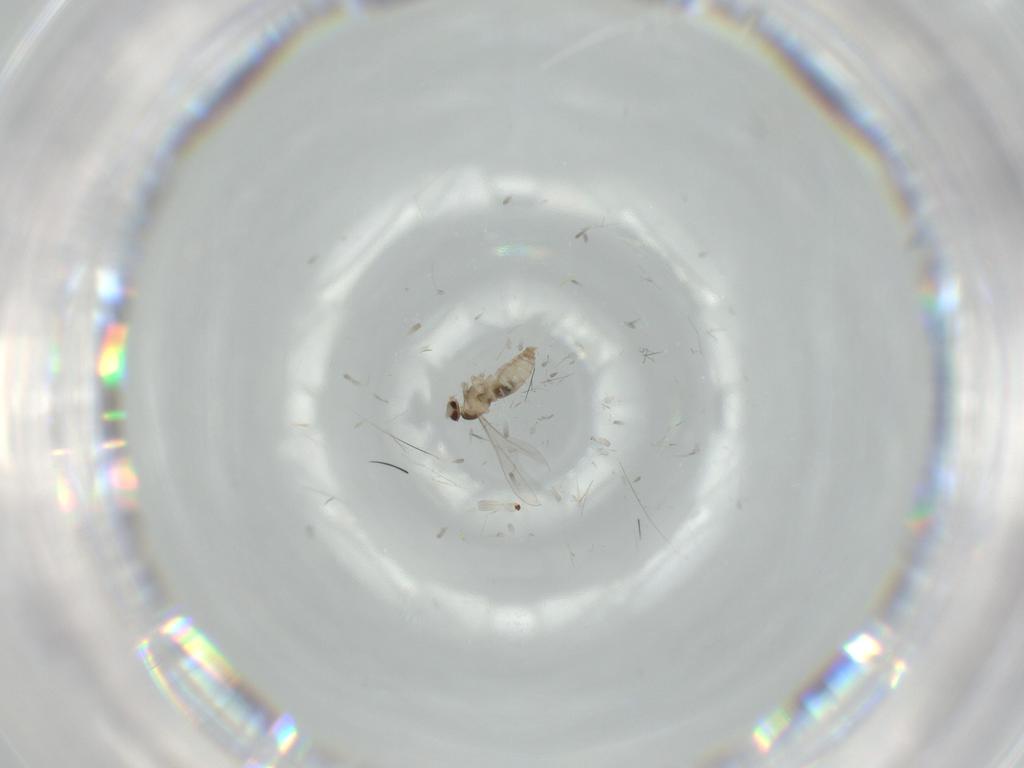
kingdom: Animalia
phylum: Arthropoda
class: Insecta
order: Diptera
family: Cecidomyiidae
